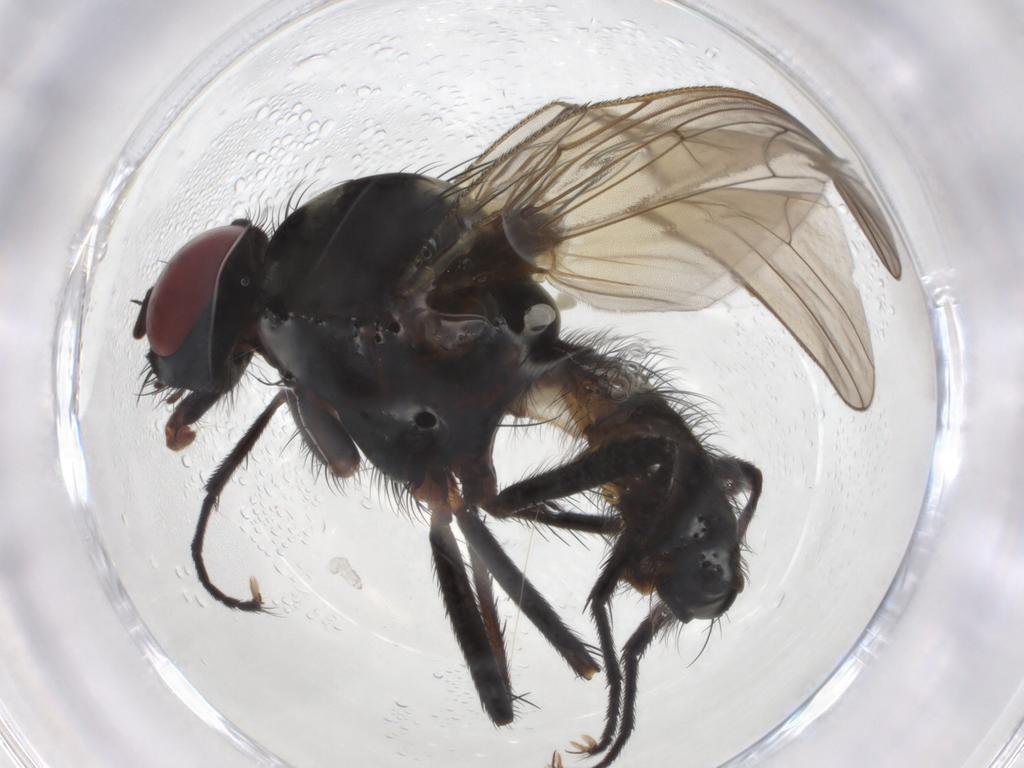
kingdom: Animalia
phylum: Arthropoda
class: Insecta
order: Diptera
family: Anthomyiidae
